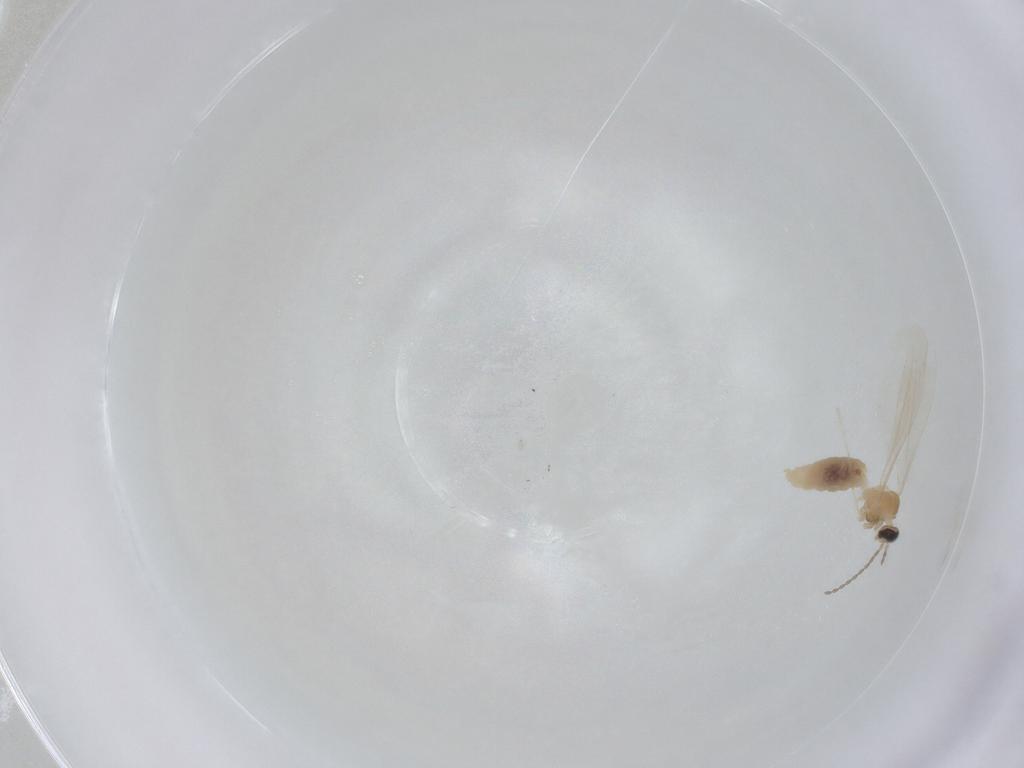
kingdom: Animalia
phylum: Arthropoda
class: Insecta
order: Diptera
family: Cecidomyiidae
